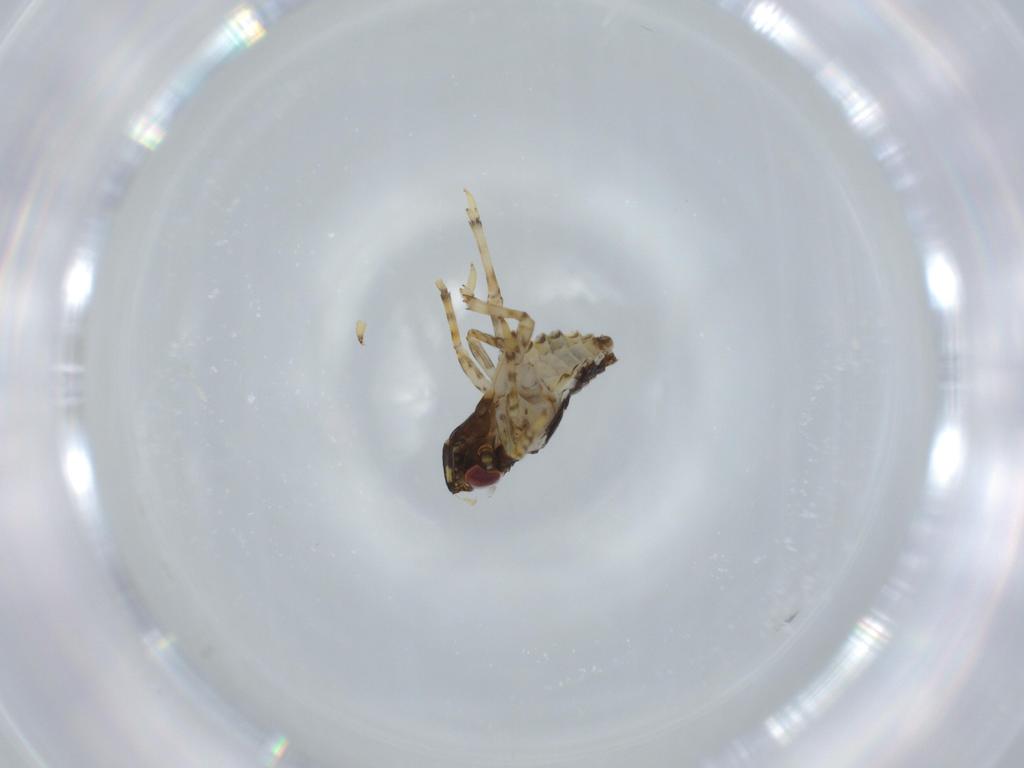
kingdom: Animalia
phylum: Arthropoda
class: Insecta
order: Hemiptera
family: Issidae
